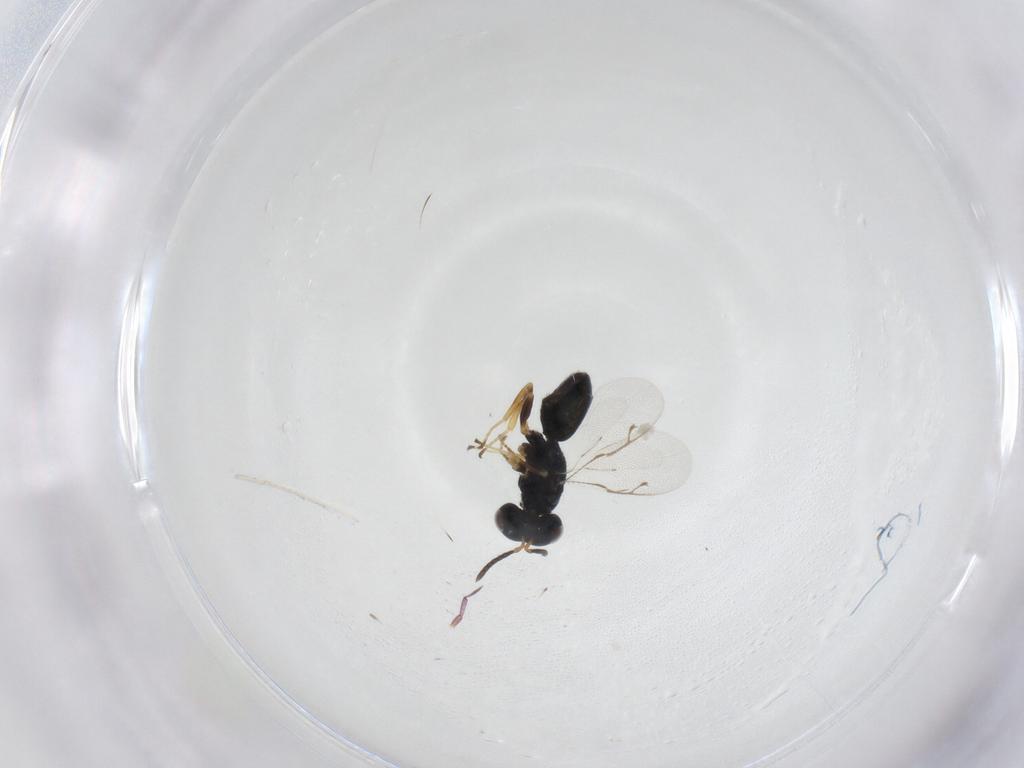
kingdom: Animalia
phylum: Arthropoda
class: Insecta
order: Hymenoptera
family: Pteromalidae
